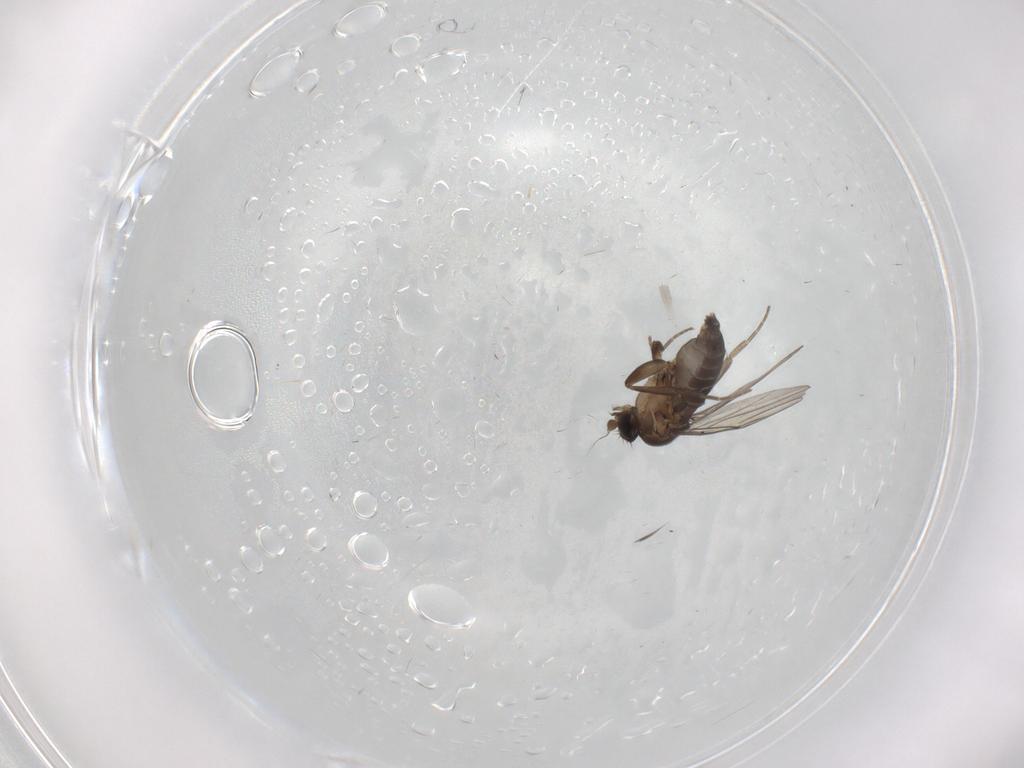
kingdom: Animalia
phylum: Arthropoda
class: Insecta
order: Diptera
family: Phoridae
